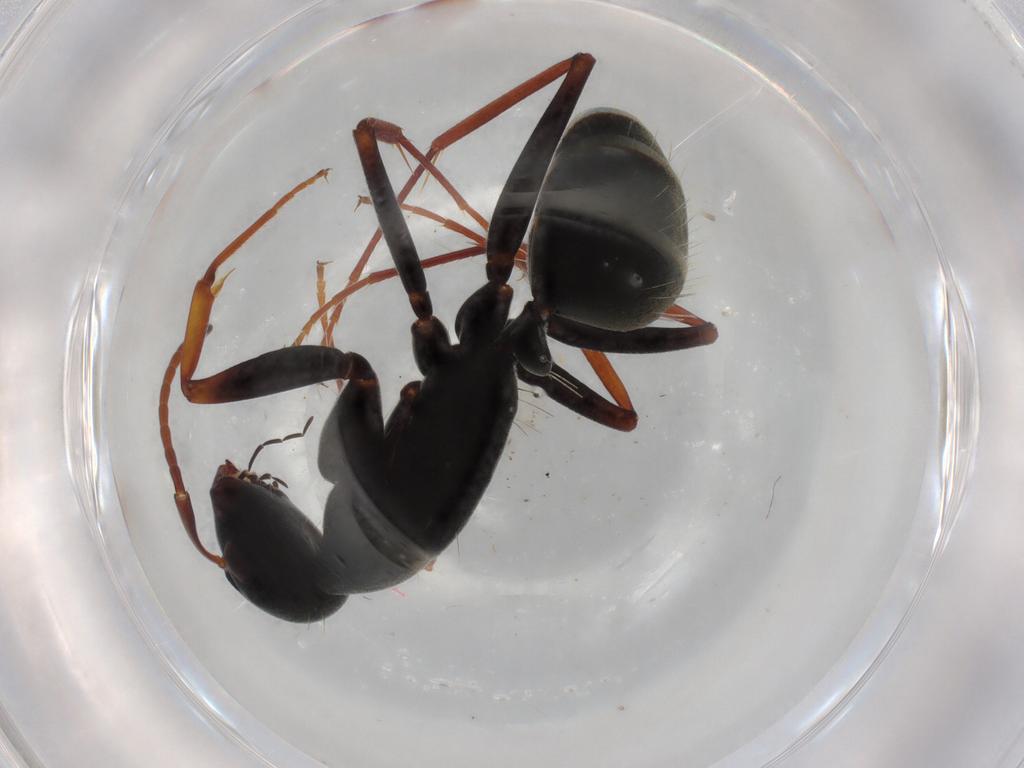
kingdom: Animalia
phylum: Arthropoda
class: Insecta
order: Hymenoptera
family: Formicidae
